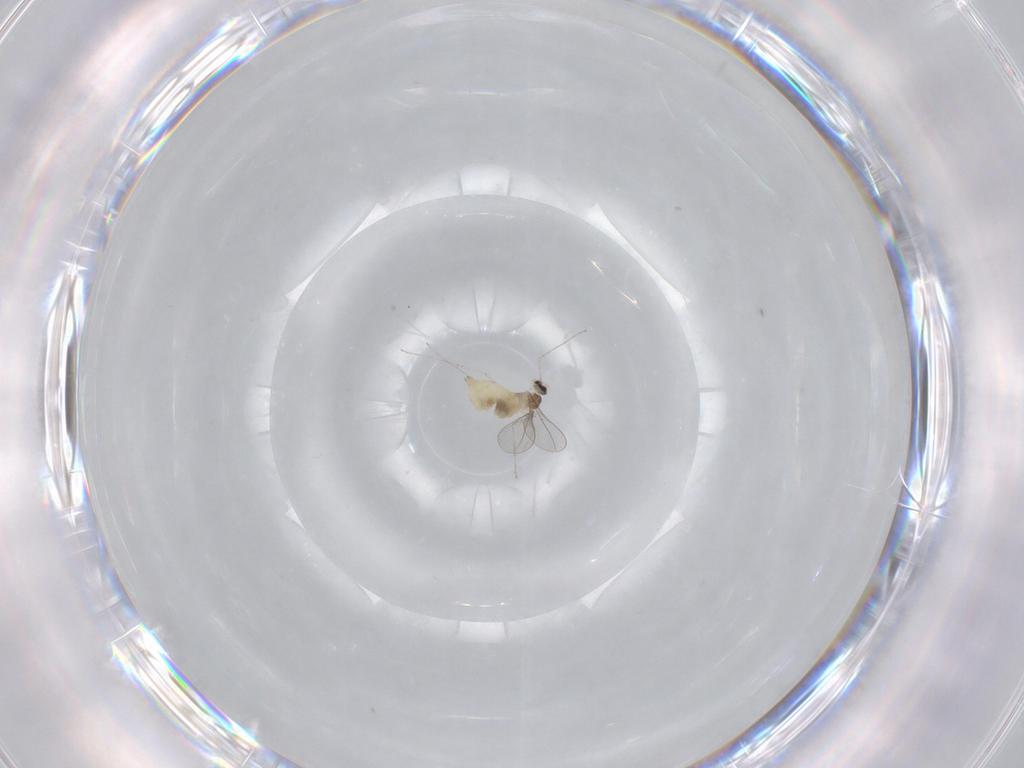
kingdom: Animalia
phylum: Arthropoda
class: Insecta
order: Diptera
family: Cecidomyiidae
